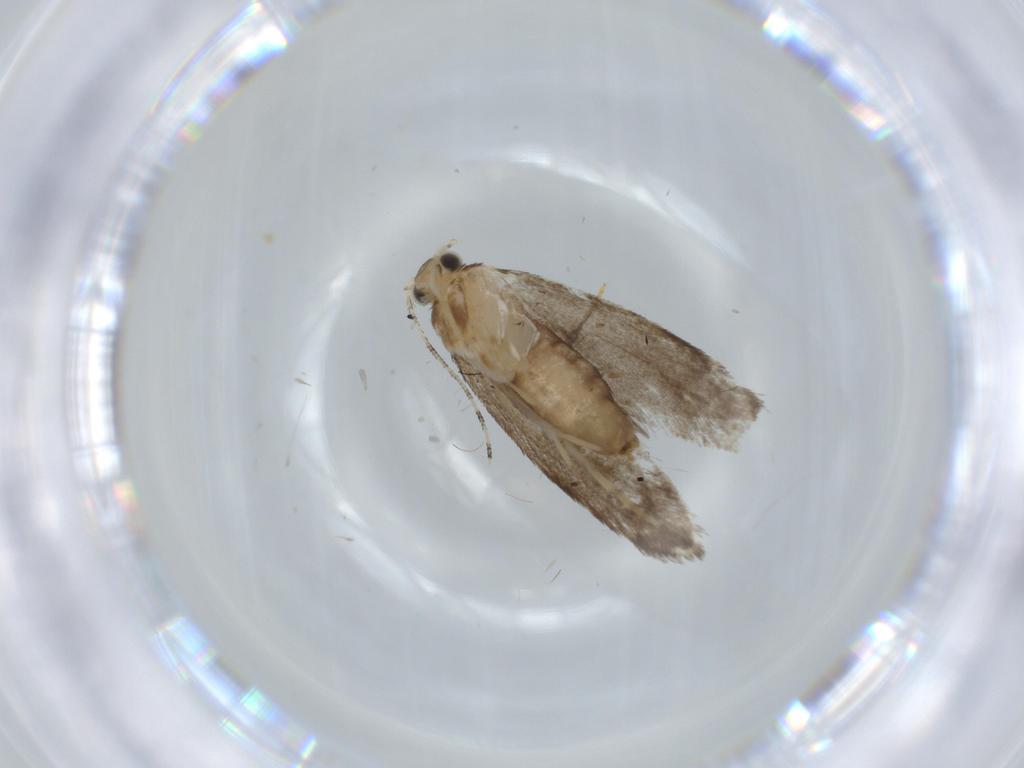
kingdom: Animalia
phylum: Arthropoda
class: Insecta
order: Lepidoptera
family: Tineidae
